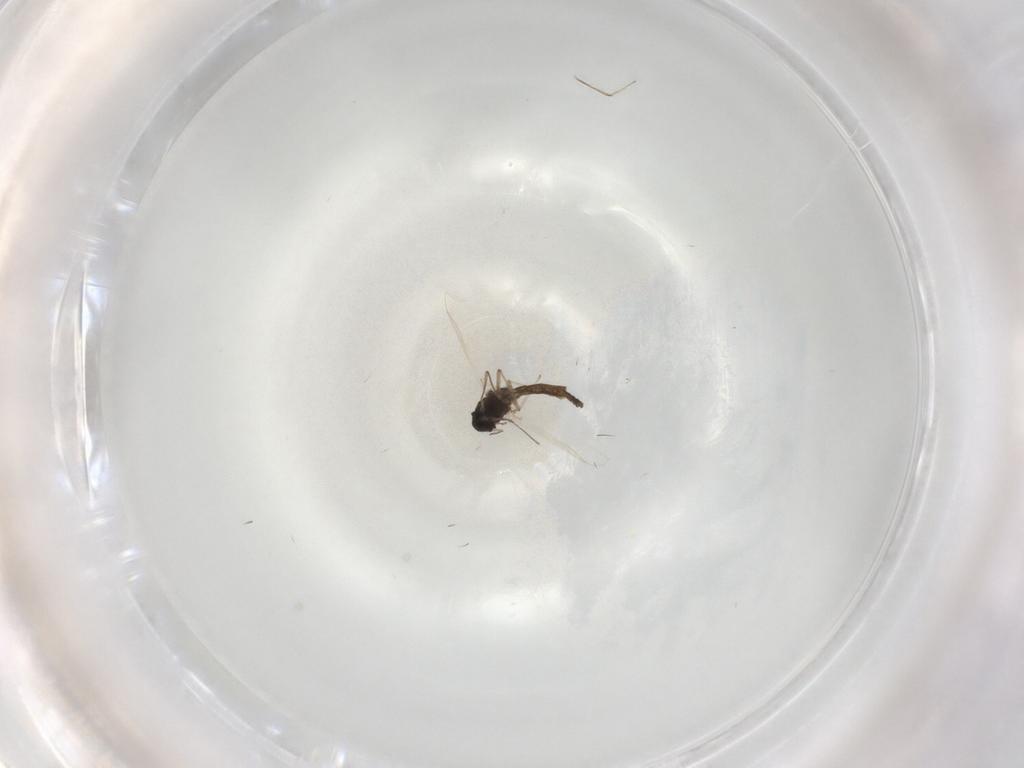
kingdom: Animalia
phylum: Arthropoda
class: Insecta
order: Diptera
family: Chironomidae
